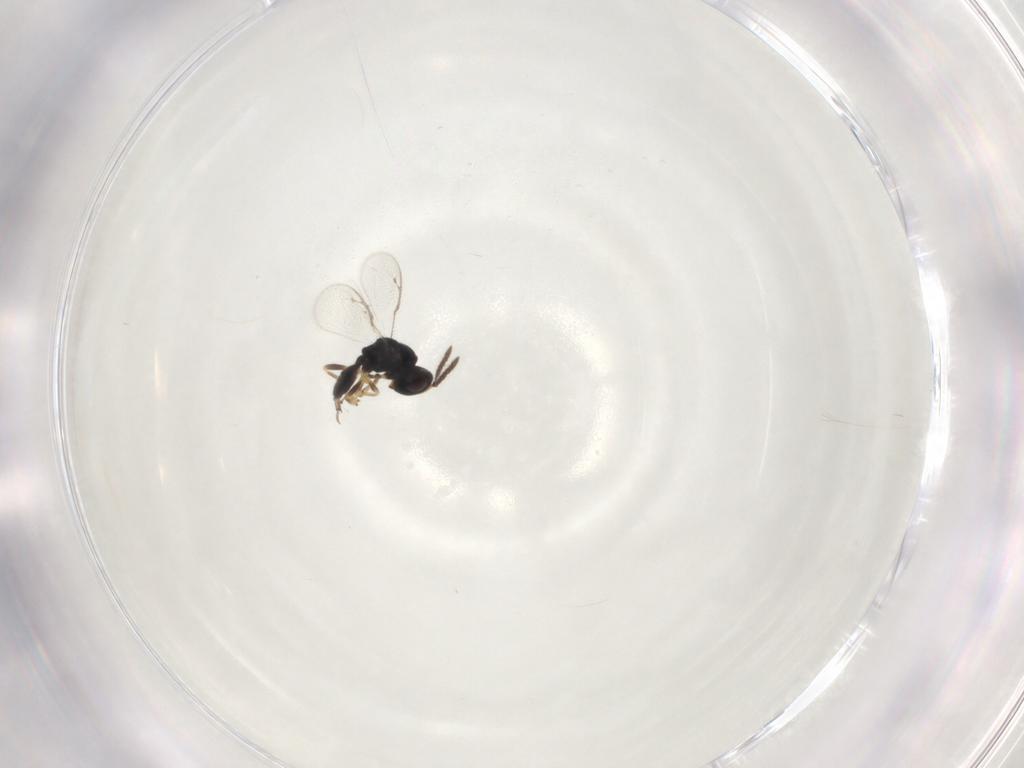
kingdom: Animalia
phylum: Arthropoda
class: Insecta
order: Hymenoptera
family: Pteromalidae
